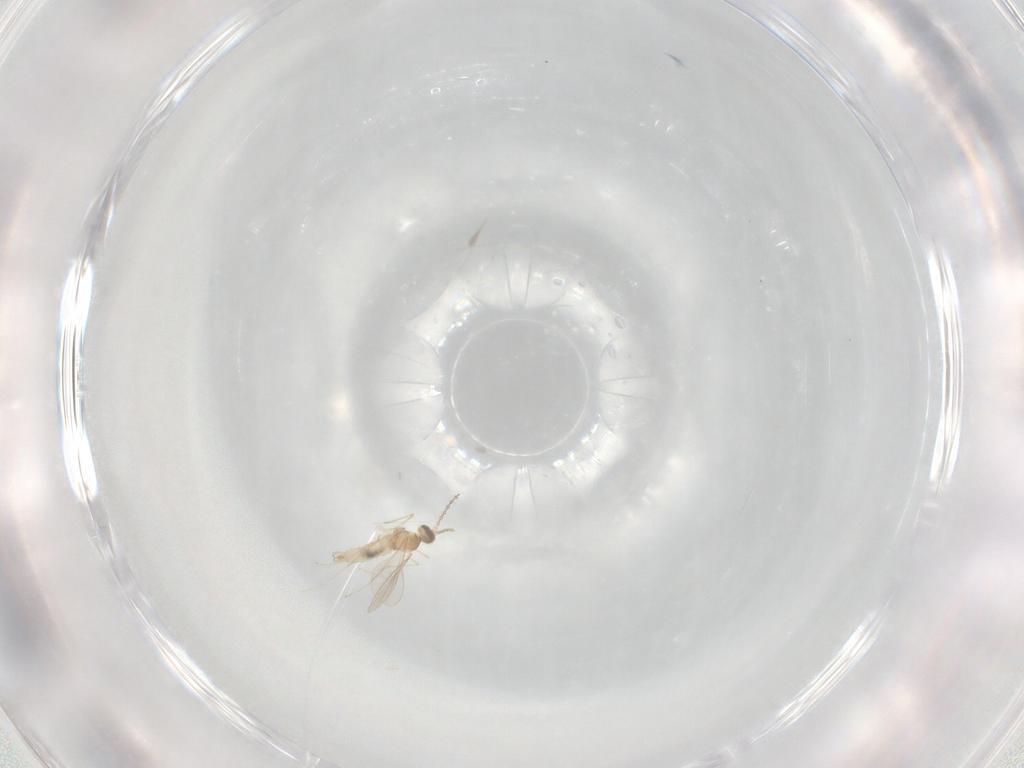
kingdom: Animalia
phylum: Arthropoda
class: Insecta
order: Diptera
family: Cecidomyiidae
